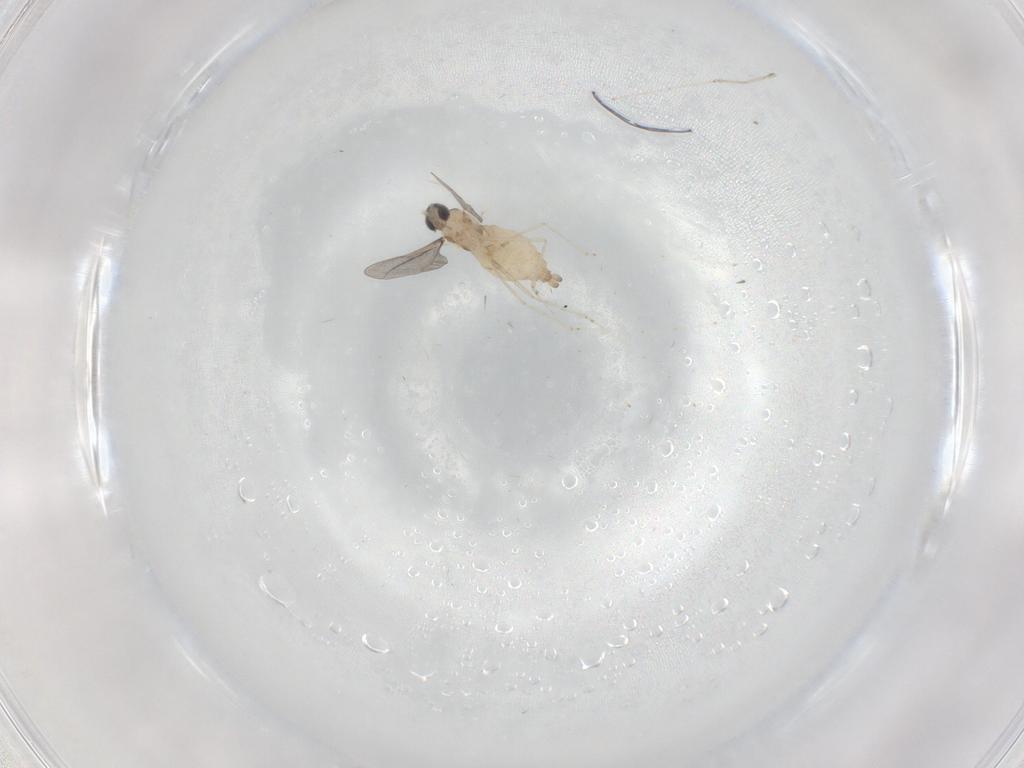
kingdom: Animalia
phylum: Arthropoda
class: Insecta
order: Diptera
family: Cecidomyiidae
